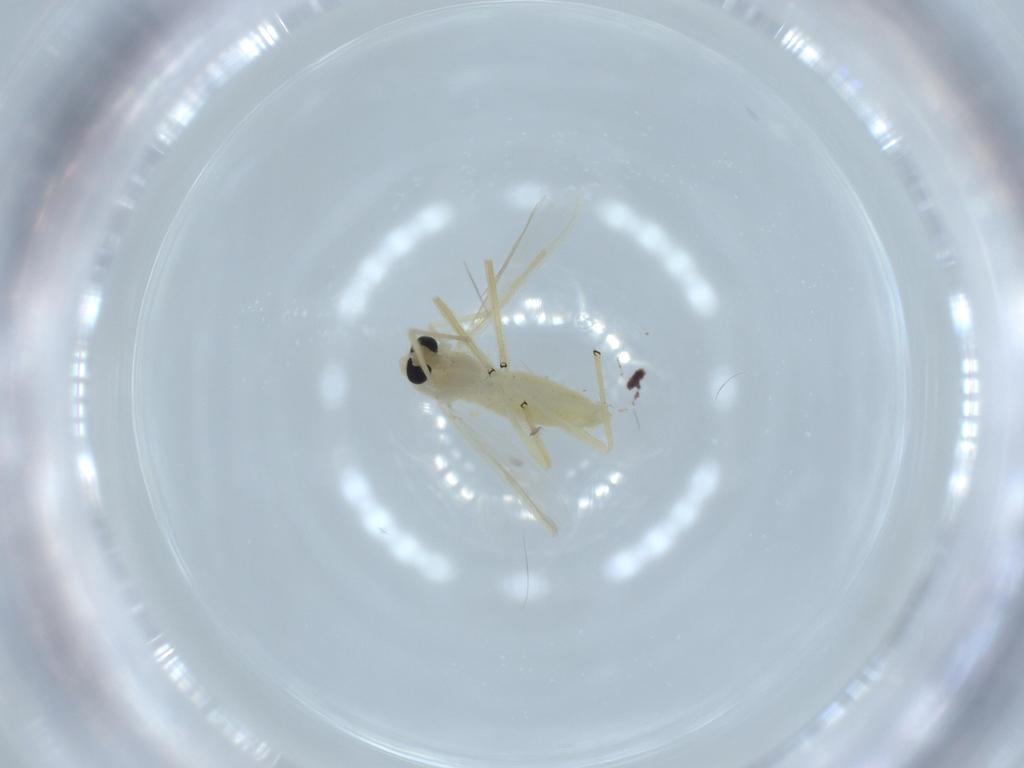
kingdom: Animalia
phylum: Arthropoda
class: Insecta
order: Diptera
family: Chironomidae
